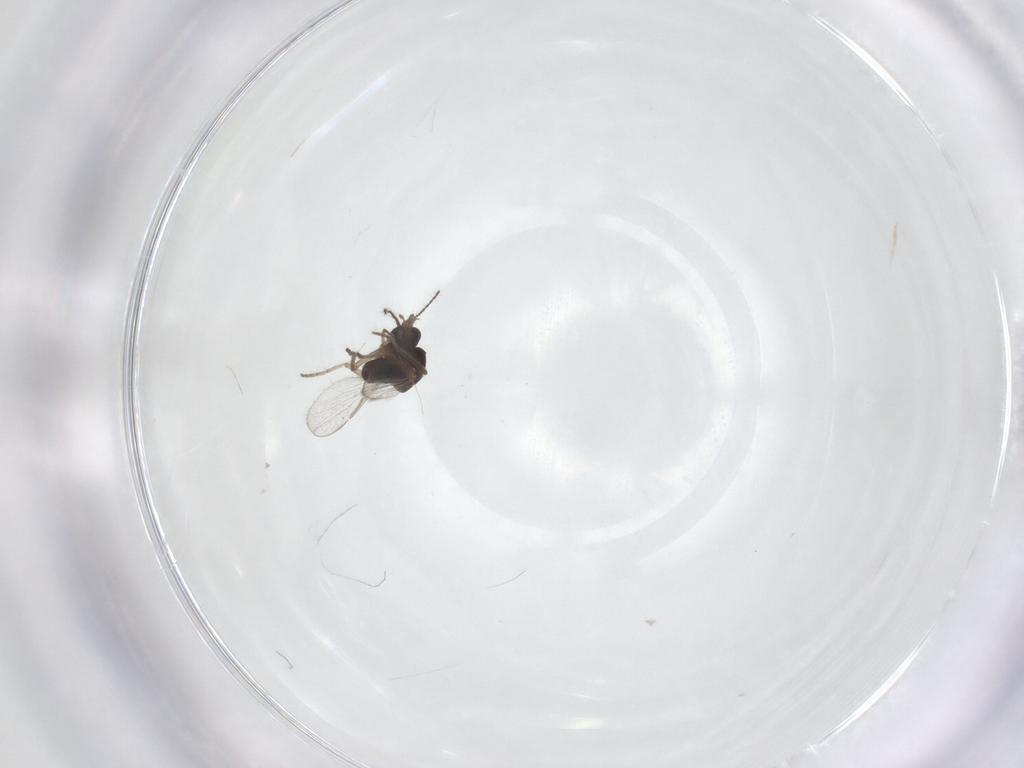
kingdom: Animalia
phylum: Arthropoda
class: Insecta
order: Diptera
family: Ceratopogonidae
